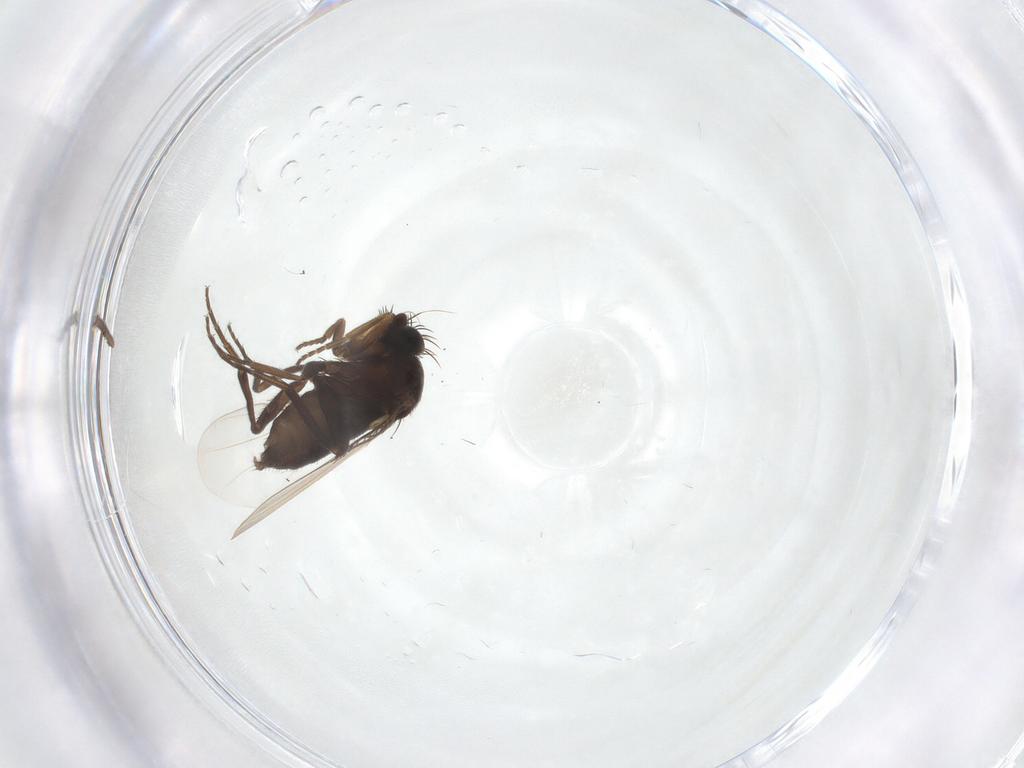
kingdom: Animalia
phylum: Arthropoda
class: Insecta
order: Diptera
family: Phoridae
